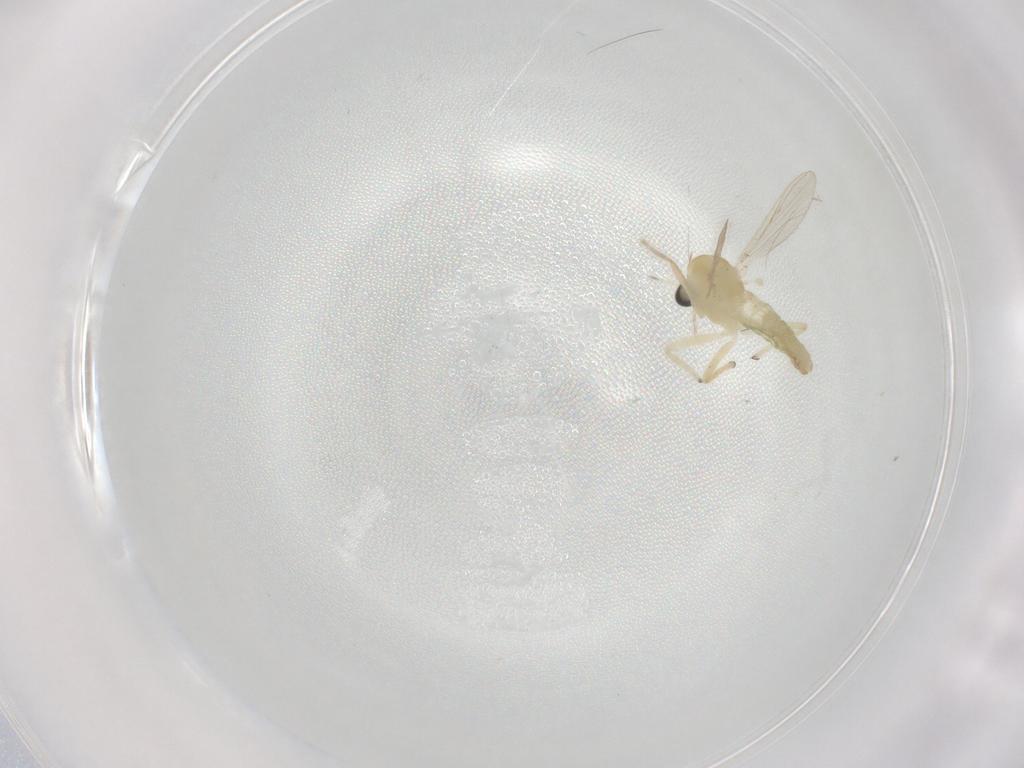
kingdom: Animalia
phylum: Arthropoda
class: Insecta
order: Diptera
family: Chironomidae
